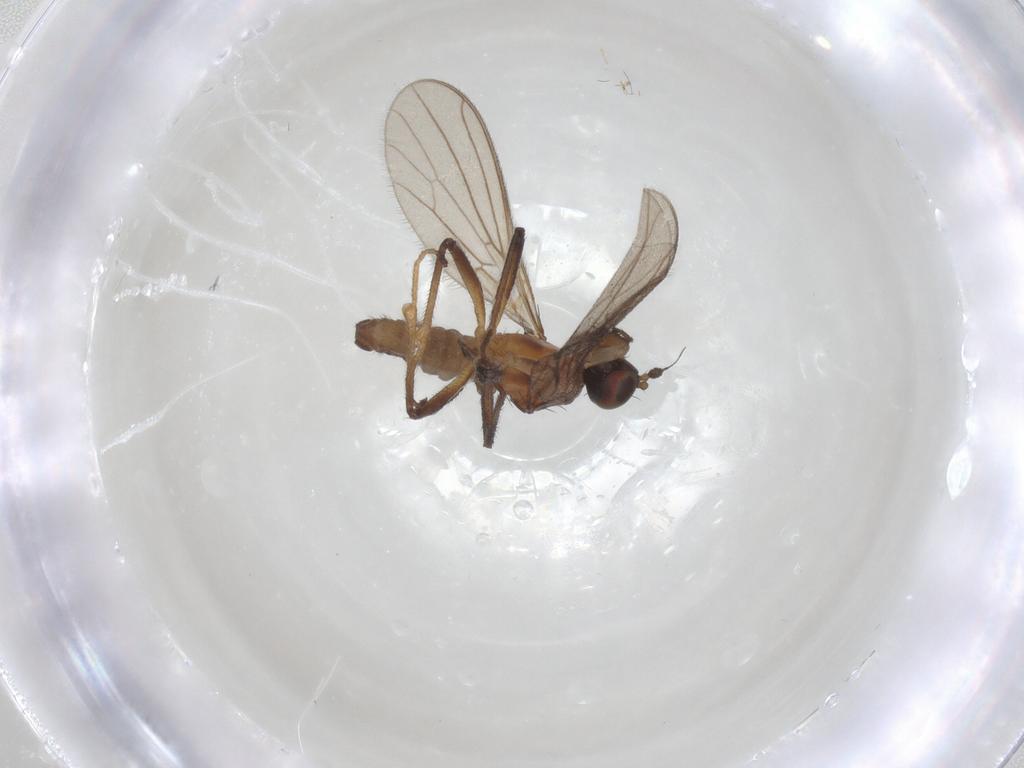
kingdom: Animalia
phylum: Arthropoda
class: Insecta
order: Diptera
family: Empididae
